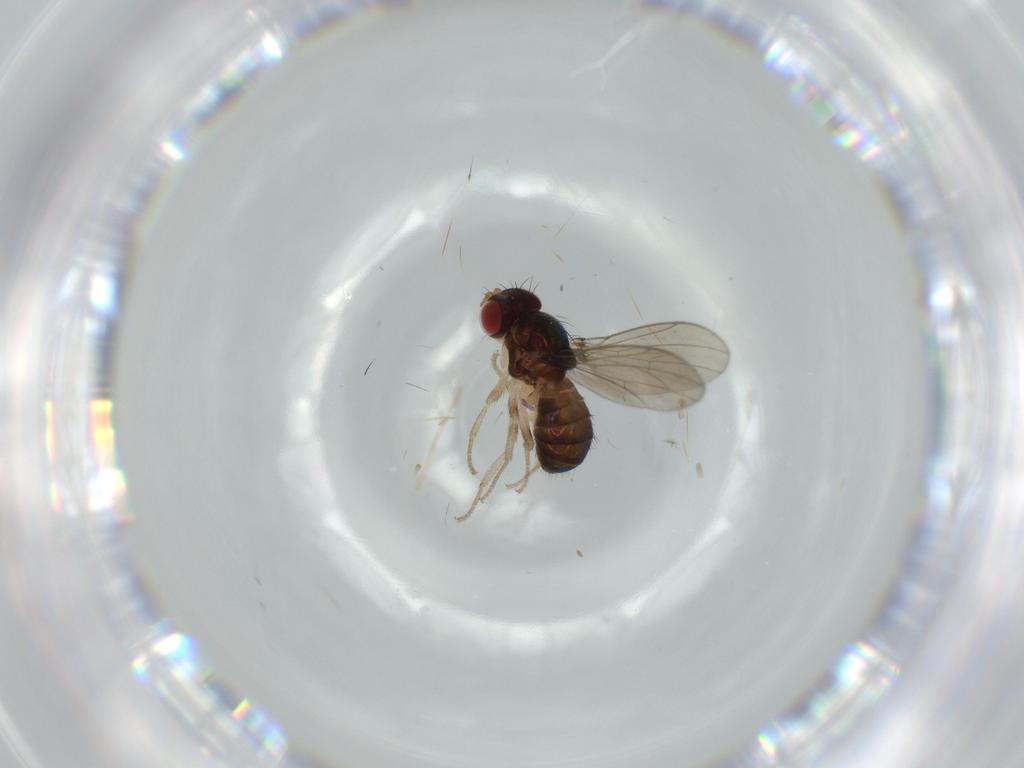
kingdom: Animalia
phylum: Arthropoda
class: Insecta
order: Diptera
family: Drosophilidae
